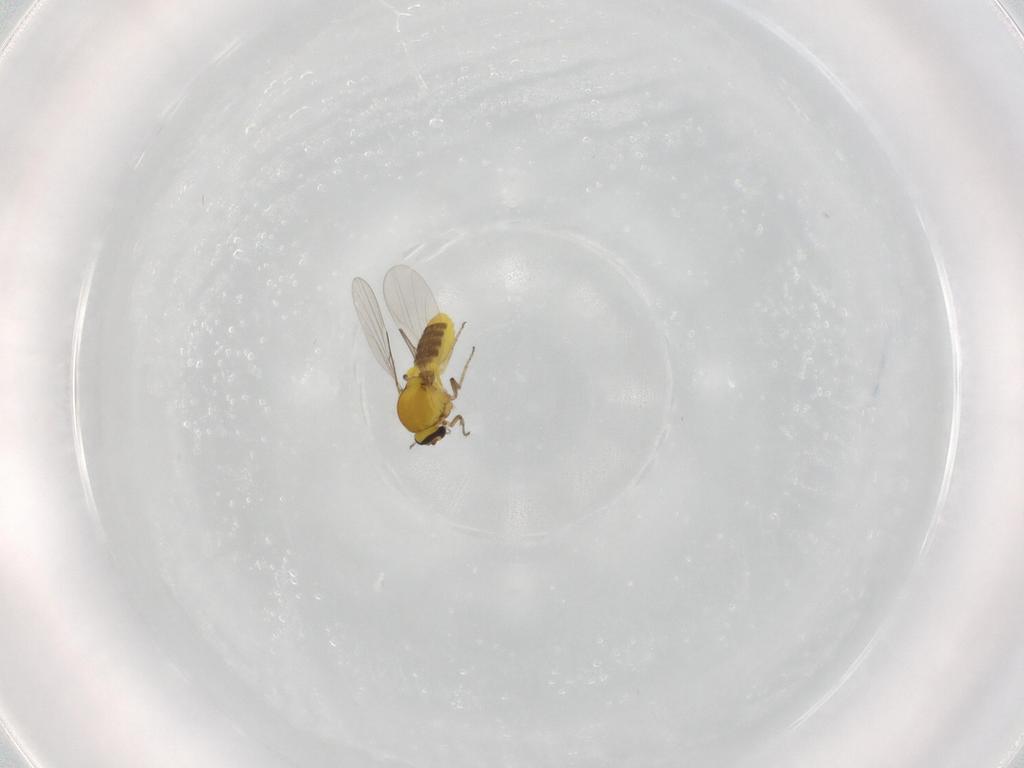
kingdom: Animalia
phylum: Arthropoda
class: Insecta
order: Diptera
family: Ceratopogonidae
